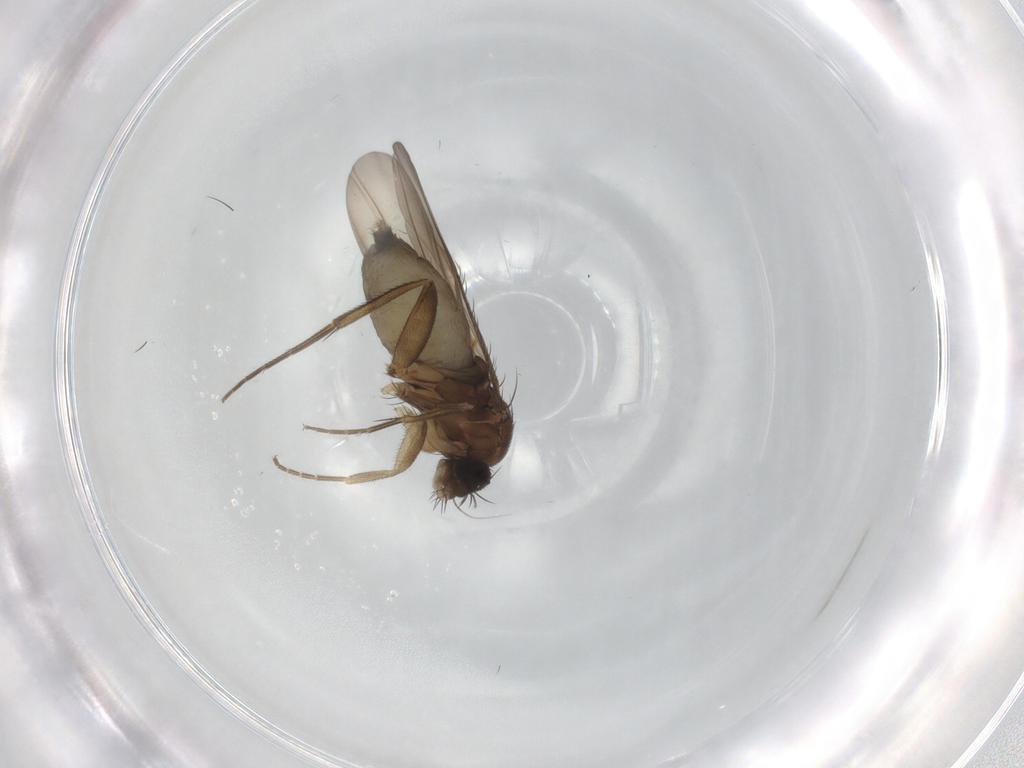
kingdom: Animalia
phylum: Arthropoda
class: Insecta
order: Diptera
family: Phoridae
